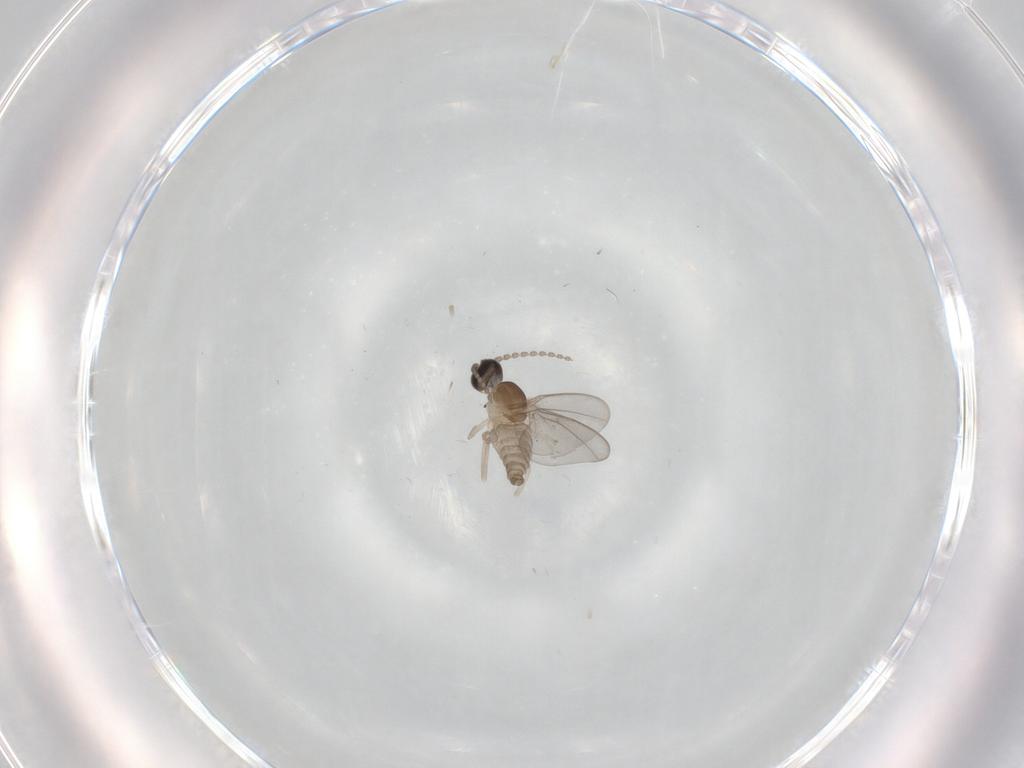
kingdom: Animalia
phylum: Arthropoda
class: Insecta
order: Diptera
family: Cecidomyiidae
